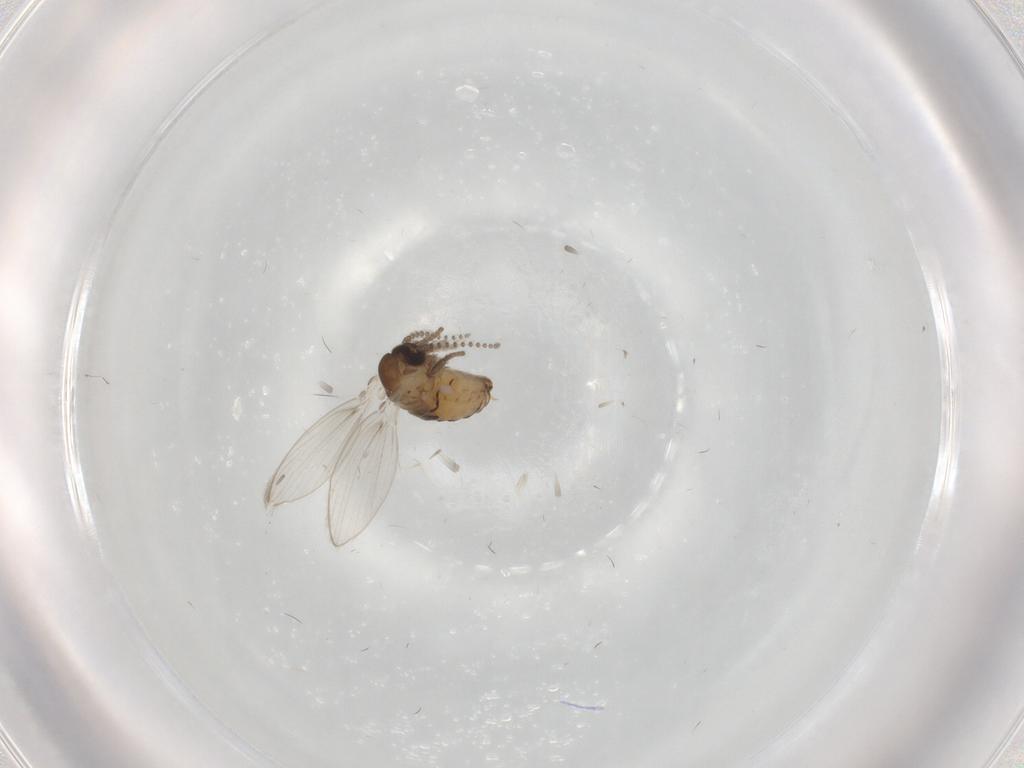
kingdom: Animalia
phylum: Arthropoda
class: Insecta
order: Diptera
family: Psychodidae
